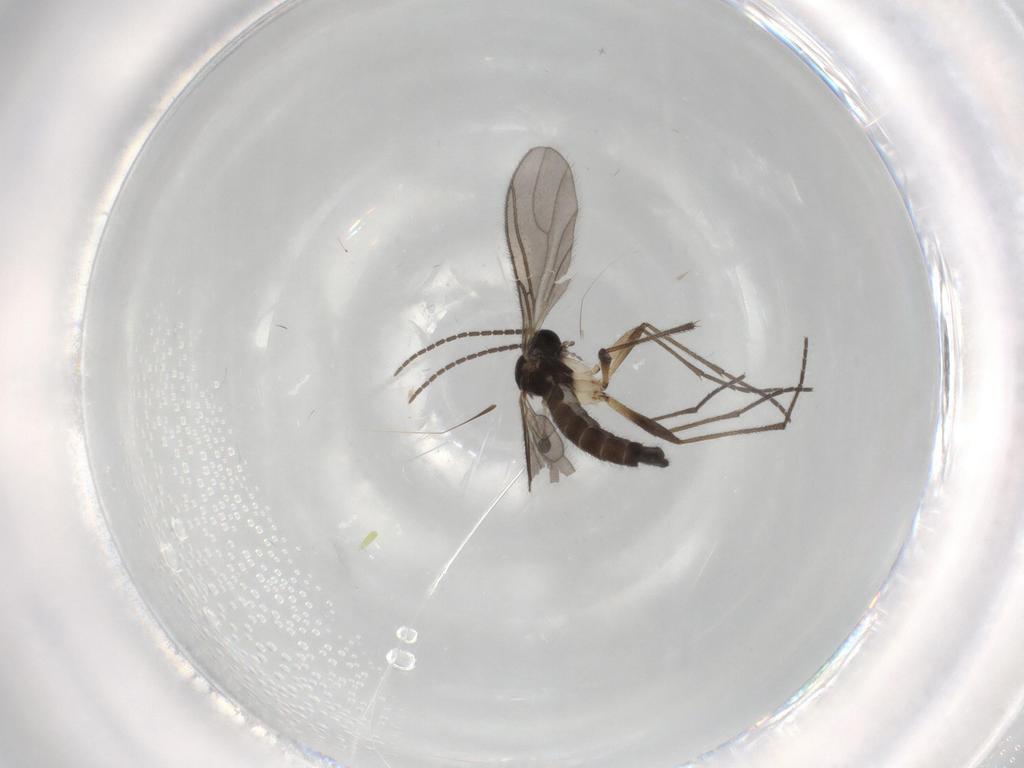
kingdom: Animalia
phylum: Arthropoda
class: Insecta
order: Diptera
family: Sciaridae
